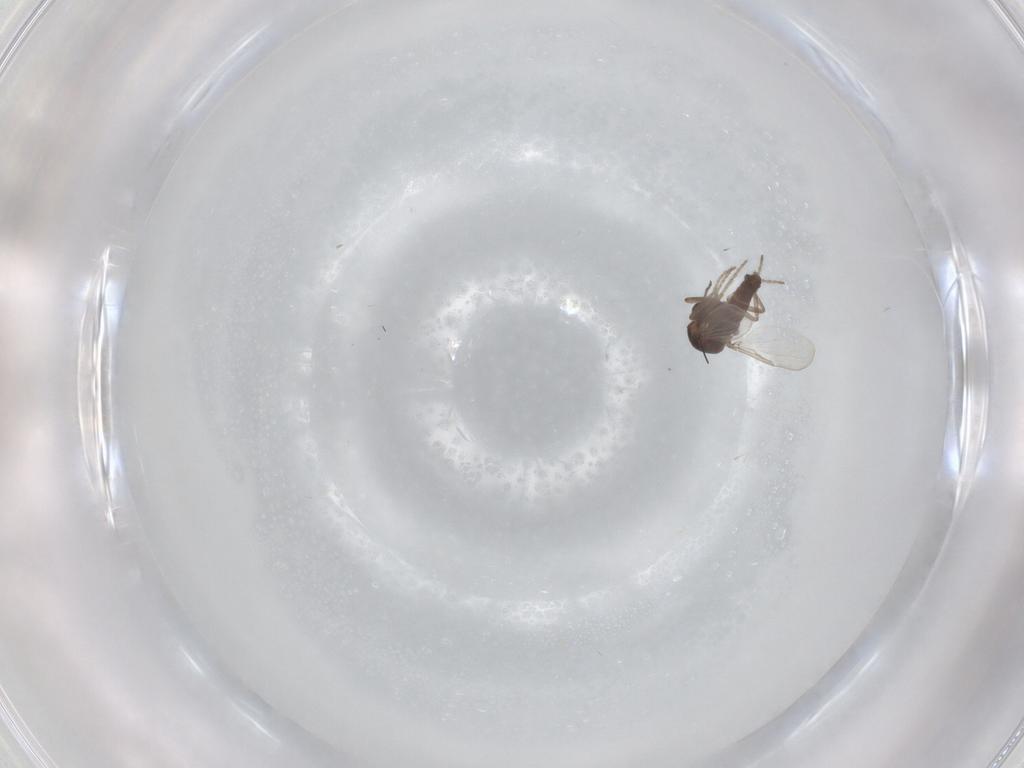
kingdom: Animalia
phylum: Arthropoda
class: Insecta
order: Diptera
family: Ceratopogonidae
